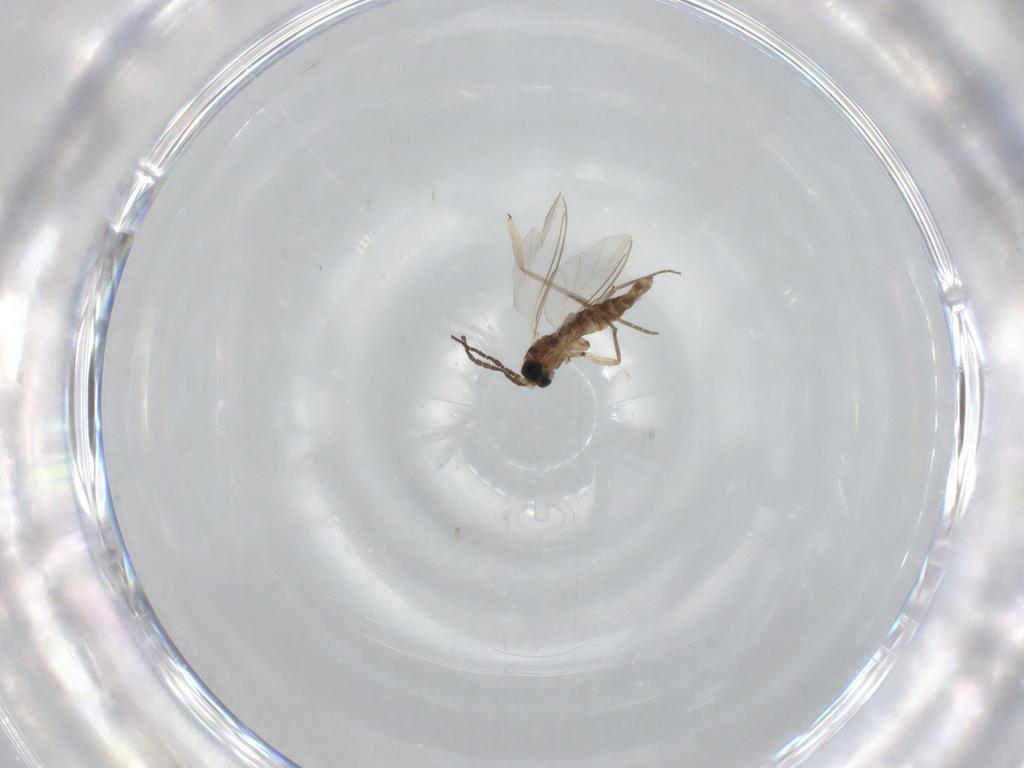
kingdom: Animalia
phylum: Arthropoda
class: Insecta
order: Diptera
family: Sciaridae
